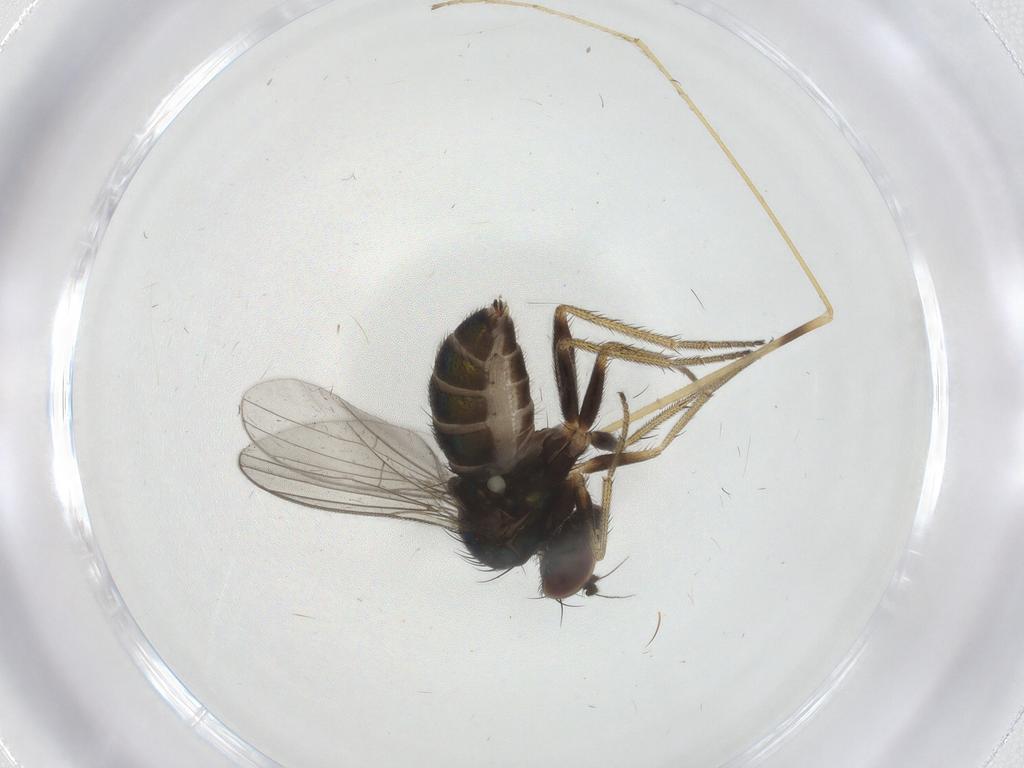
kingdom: Animalia
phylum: Arthropoda
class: Insecta
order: Diptera
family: Limoniidae
